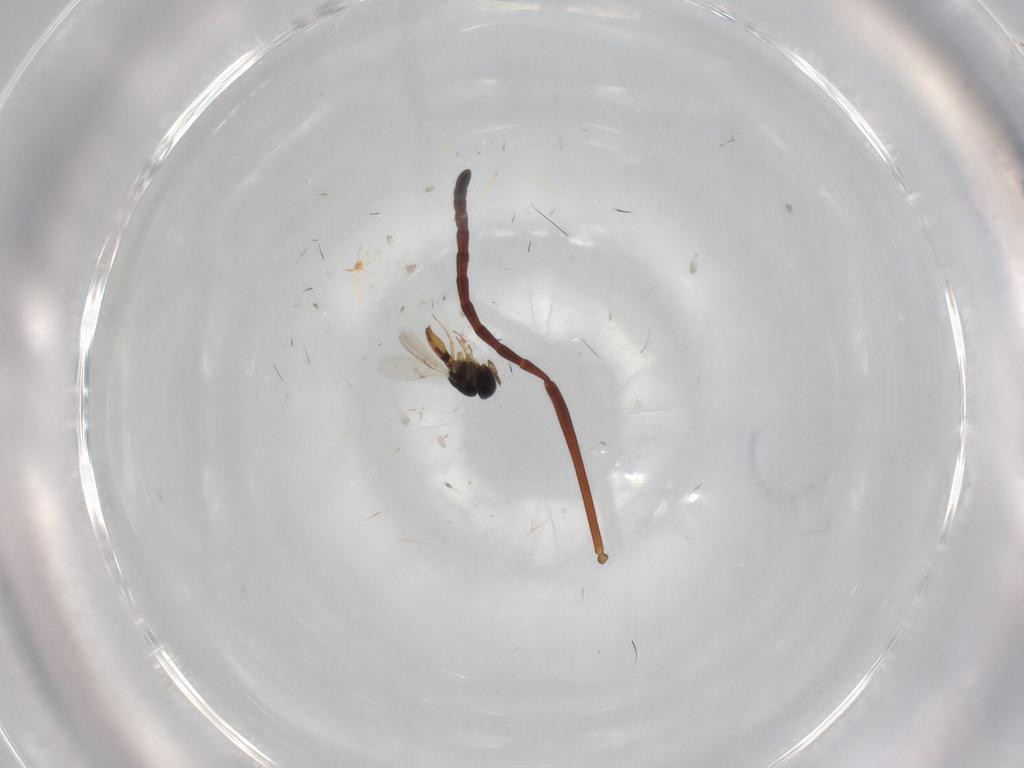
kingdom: Animalia
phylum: Arthropoda
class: Insecta
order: Hymenoptera
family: Formicidae
